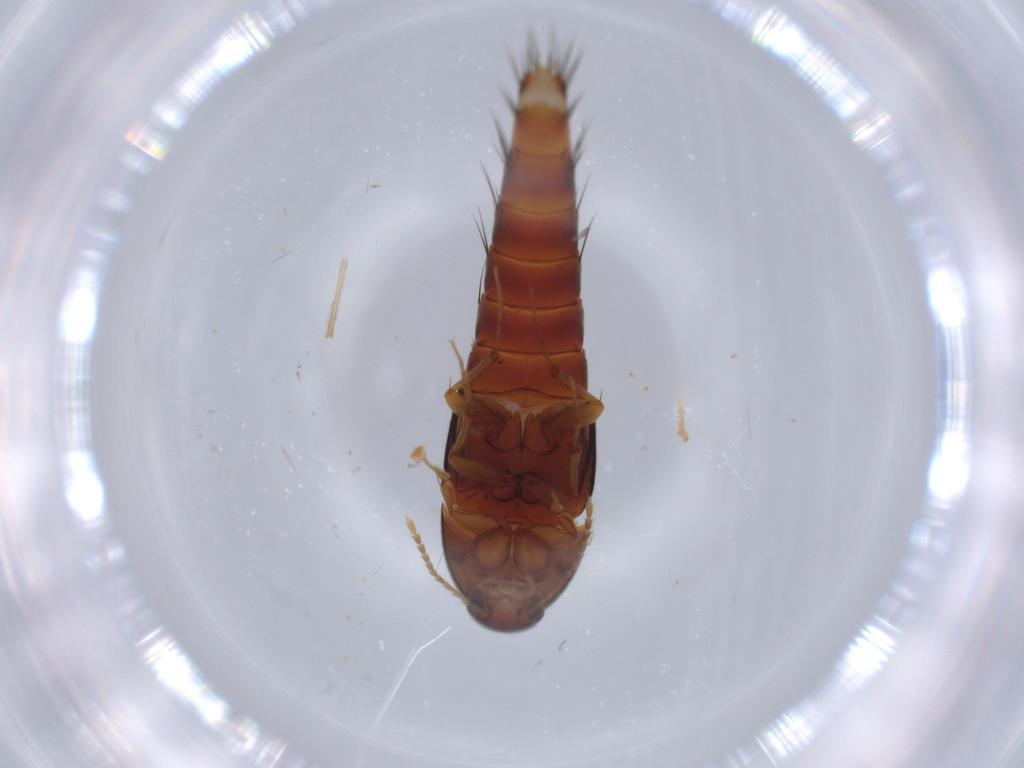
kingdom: Animalia
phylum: Arthropoda
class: Insecta
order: Coleoptera
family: Staphylinidae
